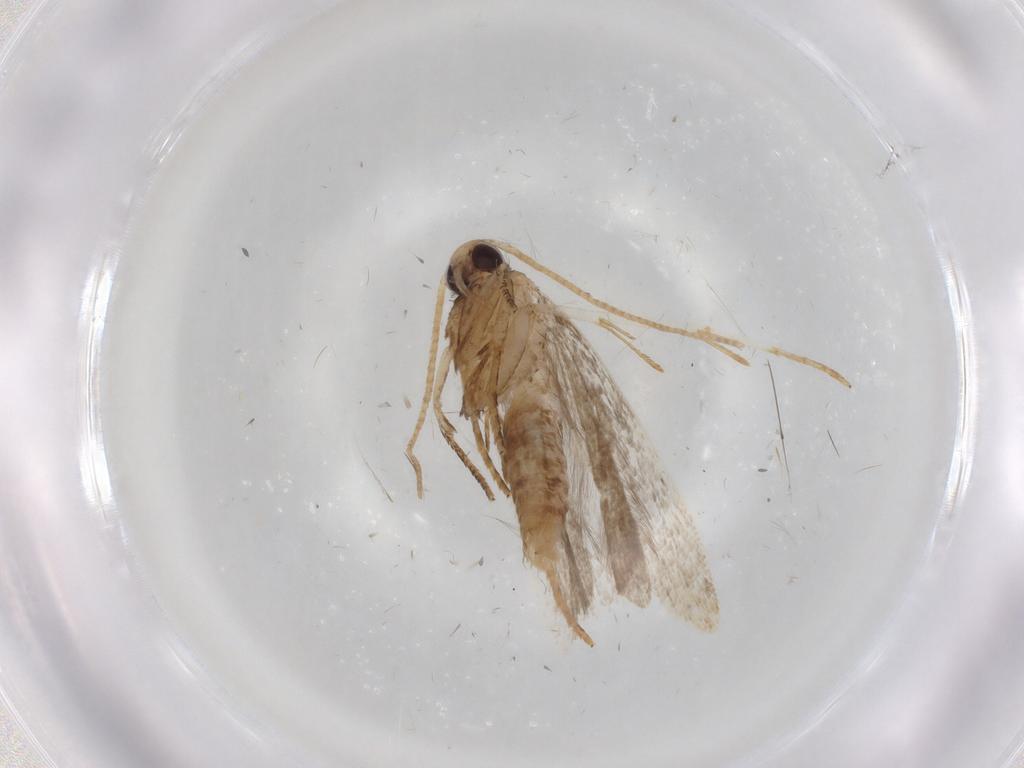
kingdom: Animalia
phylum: Arthropoda
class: Insecta
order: Lepidoptera
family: Gelechiidae
